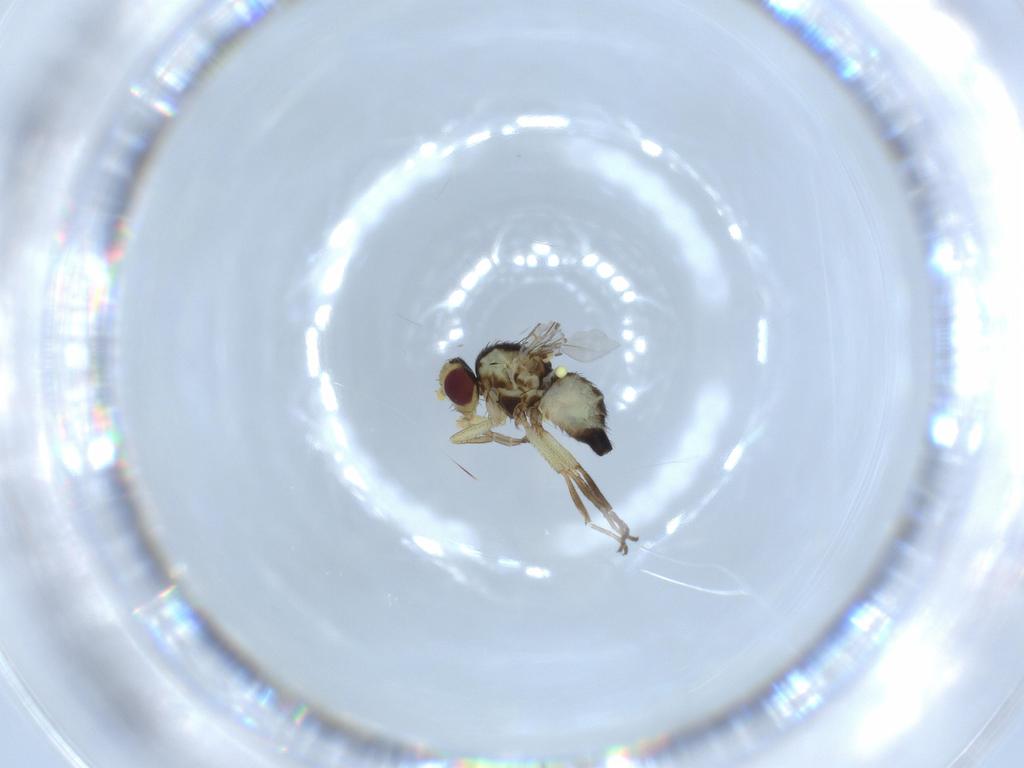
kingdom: Animalia
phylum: Arthropoda
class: Insecta
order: Diptera
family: Agromyzidae
